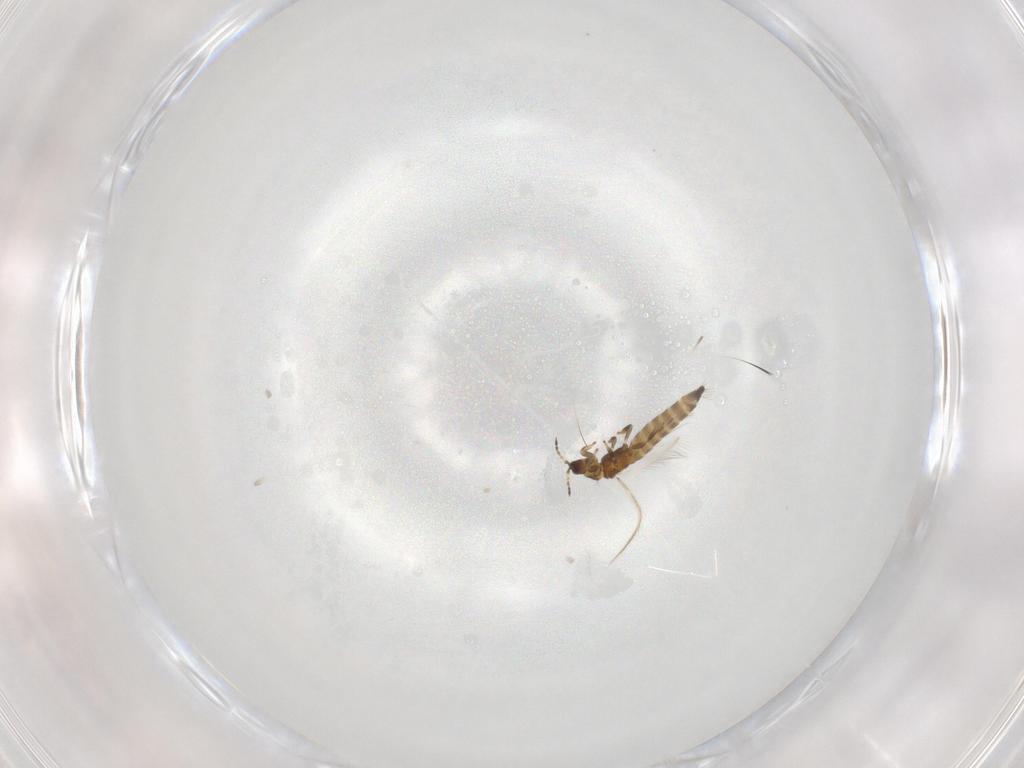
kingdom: Animalia
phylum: Arthropoda
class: Insecta
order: Thysanoptera
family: Thripidae
